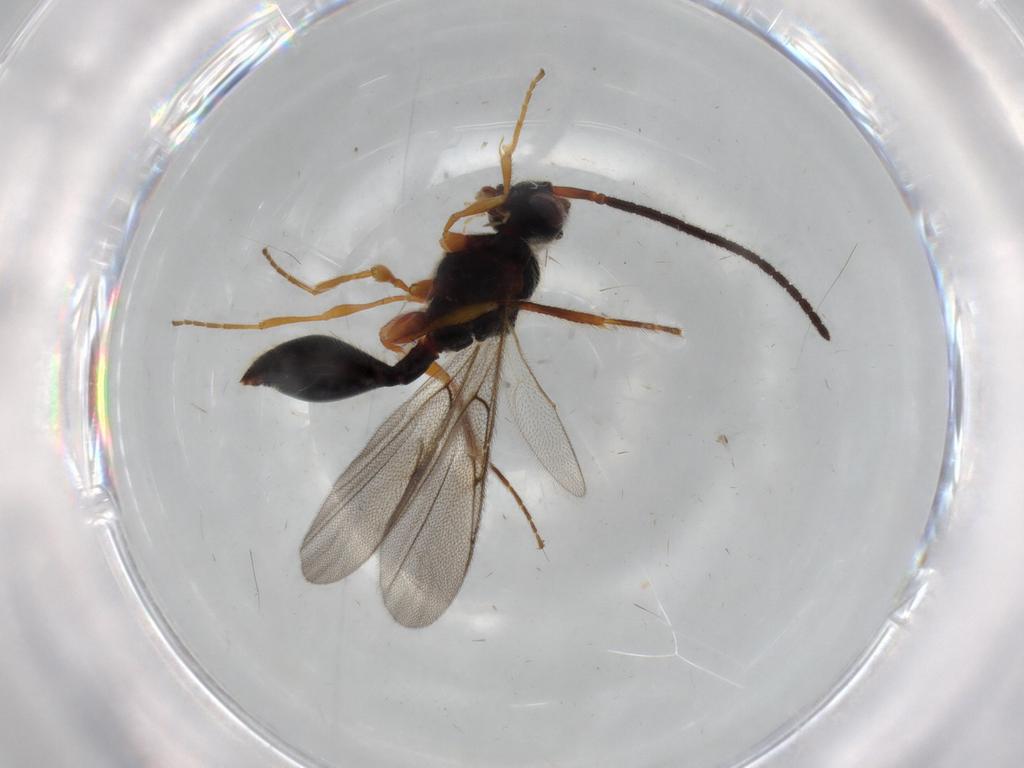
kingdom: Animalia
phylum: Arthropoda
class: Insecta
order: Hymenoptera
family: Diapriidae
